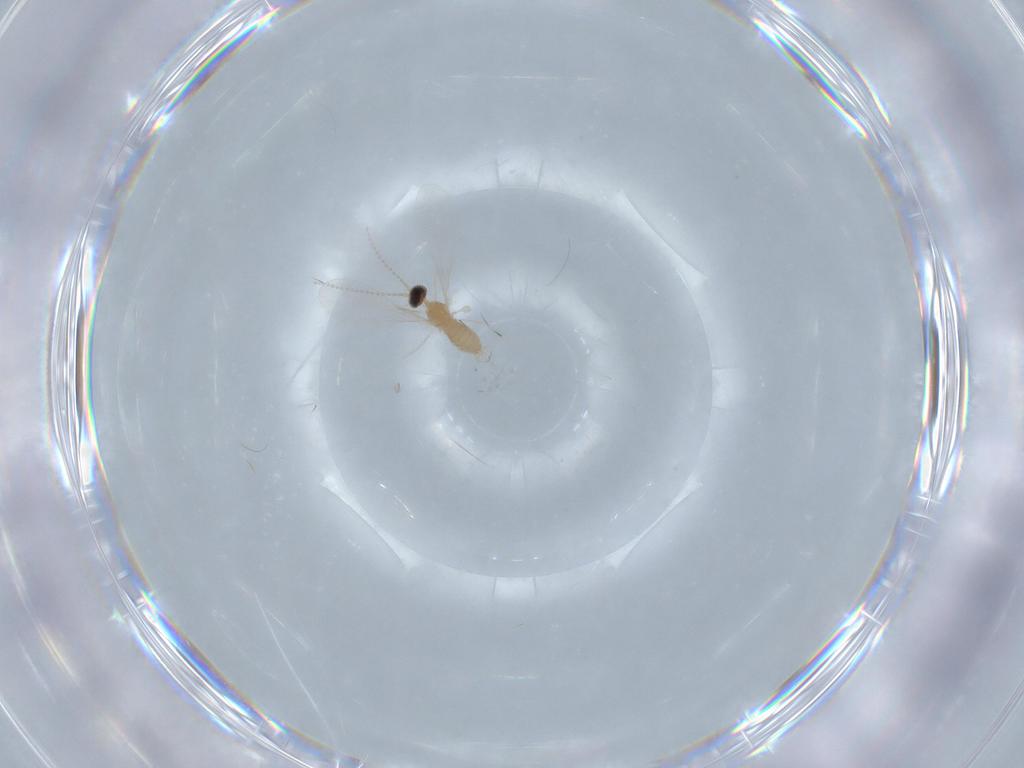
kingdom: Animalia
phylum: Arthropoda
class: Insecta
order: Diptera
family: Cecidomyiidae
